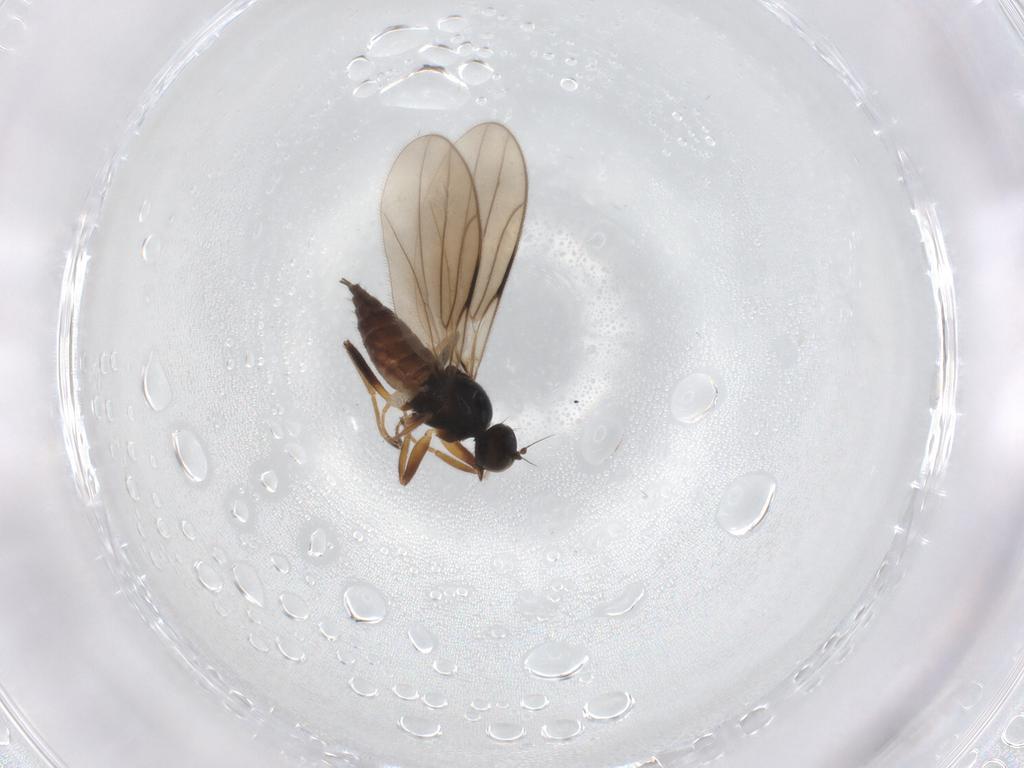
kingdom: Animalia
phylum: Arthropoda
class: Insecta
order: Diptera
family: Hybotidae
